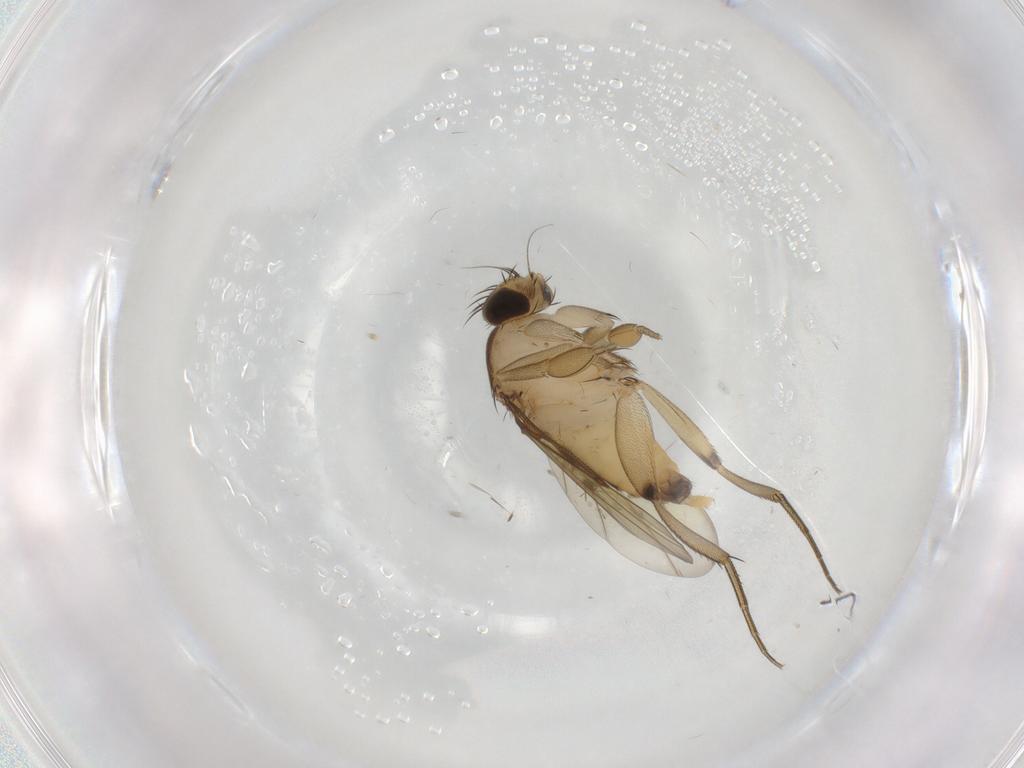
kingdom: Animalia
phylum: Arthropoda
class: Insecta
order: Diptera
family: Phoridae
